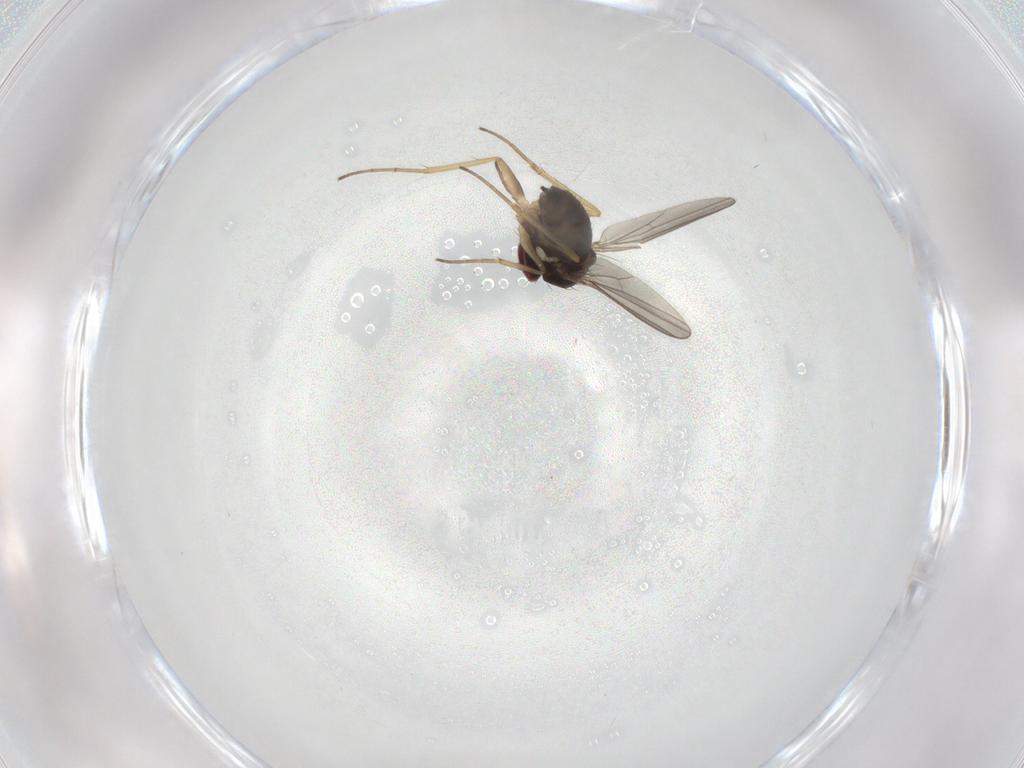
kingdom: Animalia
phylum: Arthropoda
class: Insecta
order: Diptera
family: Dolichopodidae
